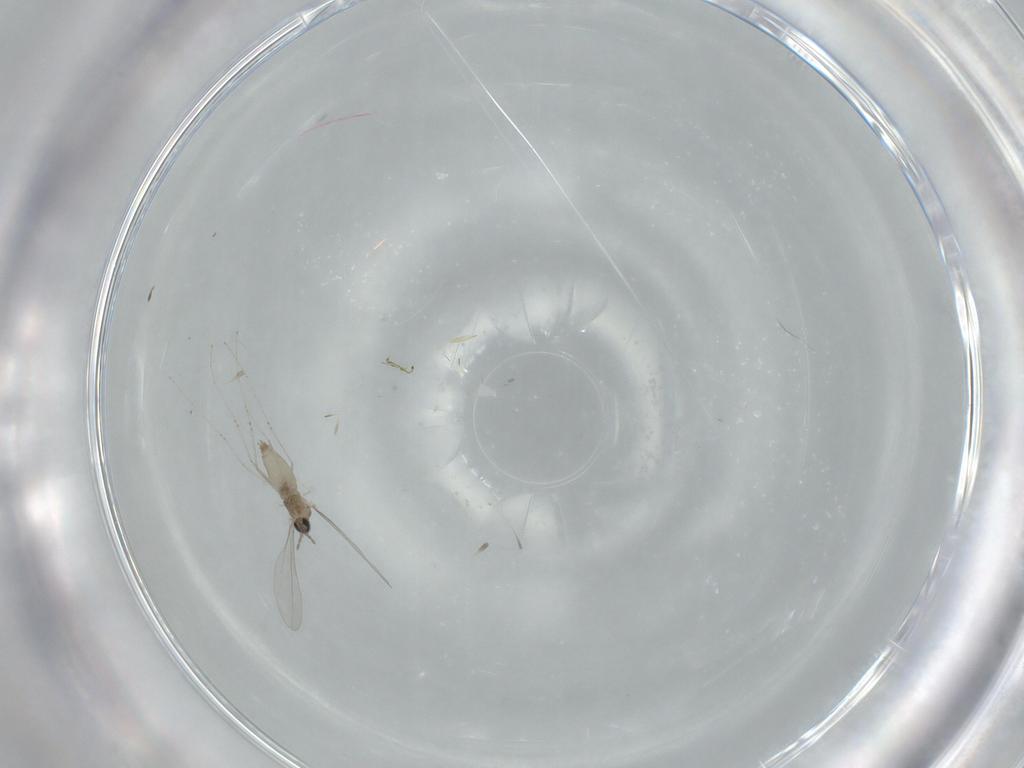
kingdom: Animalia
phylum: Arthropoda
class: Insecta
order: Diptera
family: Cecidomyiidae
